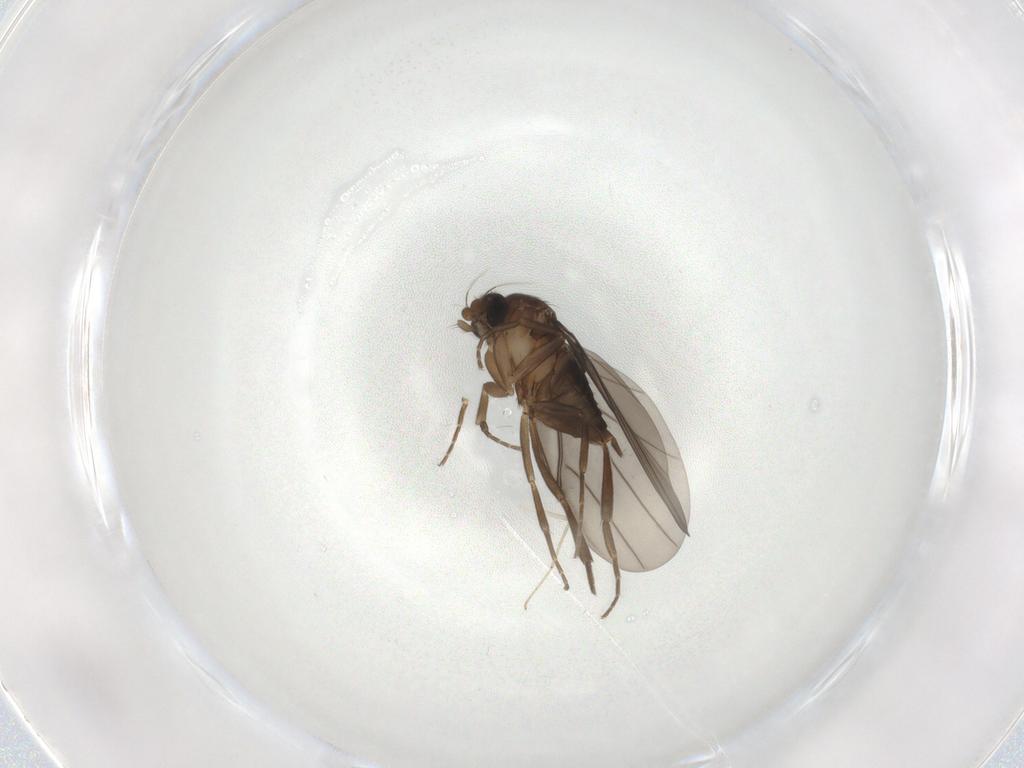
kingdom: Animalia
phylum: Arthropoda
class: Insecta
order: Diptera
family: Phoridae
